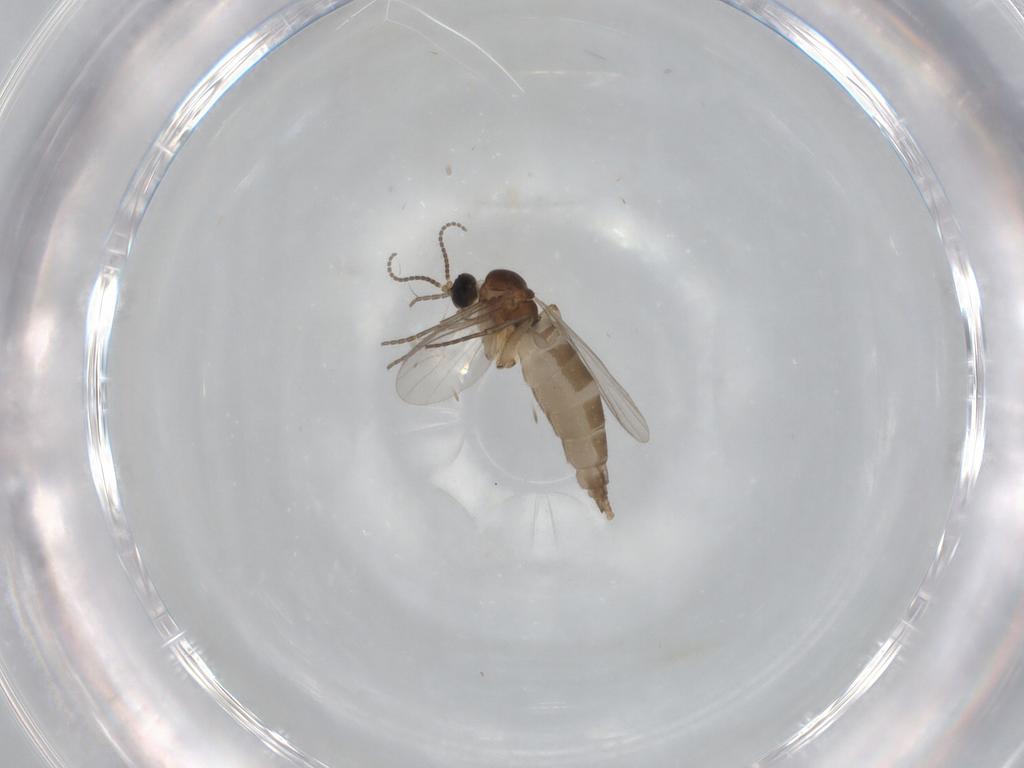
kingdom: Animalia
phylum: Arthropoda
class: Insecta
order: Diptera
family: Sciaridae
